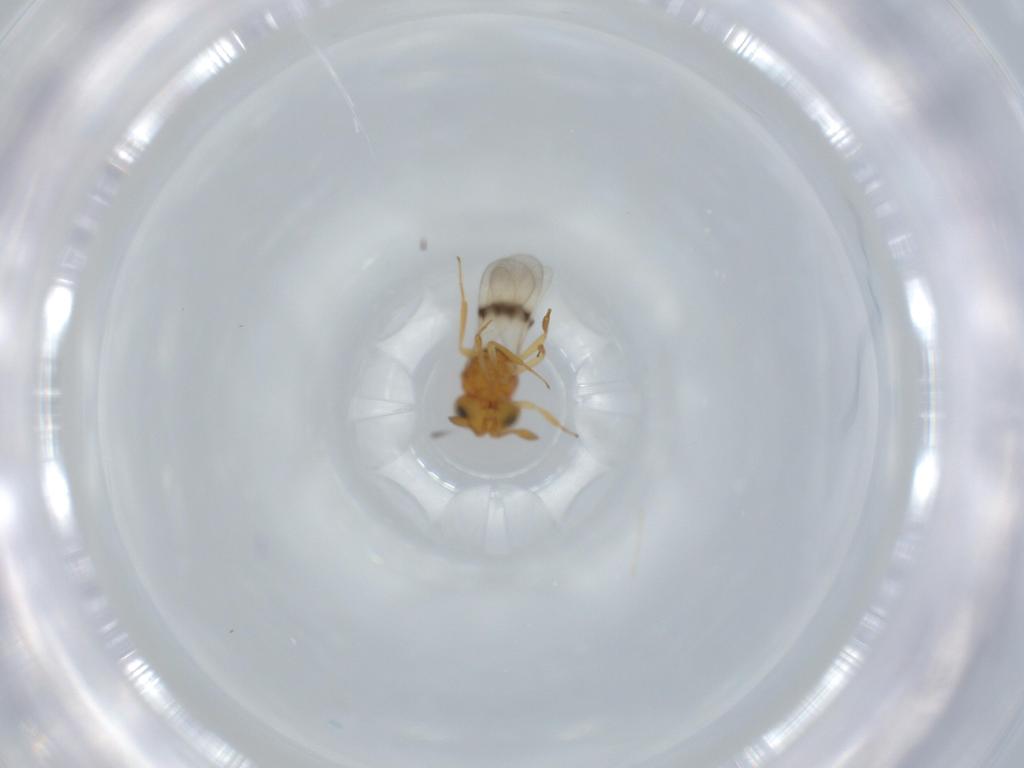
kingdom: Animalia
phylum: Arthropoda
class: Insecta
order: Hymenoptera
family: Scelionidae
